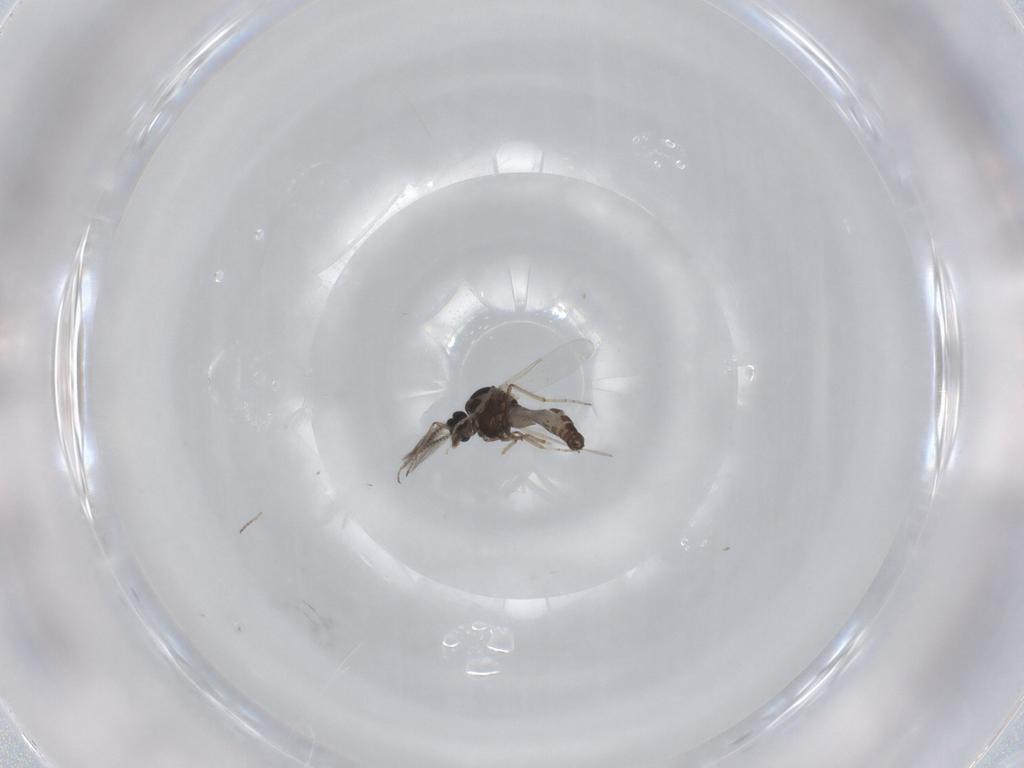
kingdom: Animalia
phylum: Arthropoda
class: Insecta
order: Diptera
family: Ceratopogonidae
